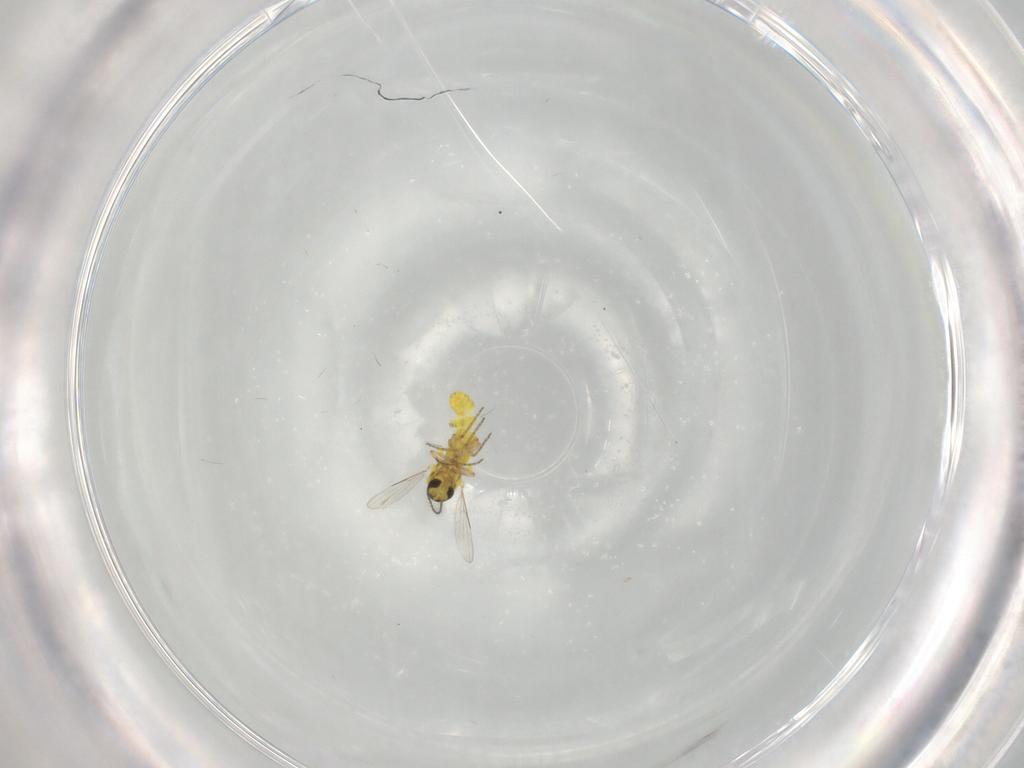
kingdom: Animalia
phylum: Arthropoda
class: Insecta
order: Diptera
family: Ceratopogonidae
